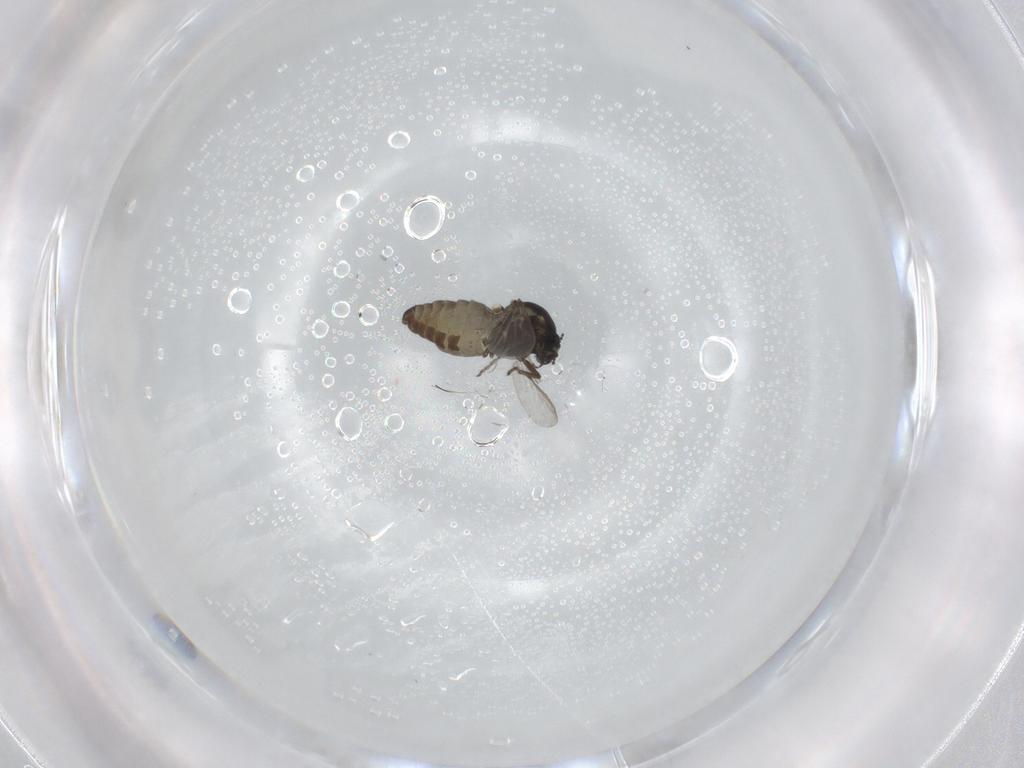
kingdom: Animalia
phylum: Arthropoda
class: Insecta
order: Diptera
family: Ceratopogonidae
